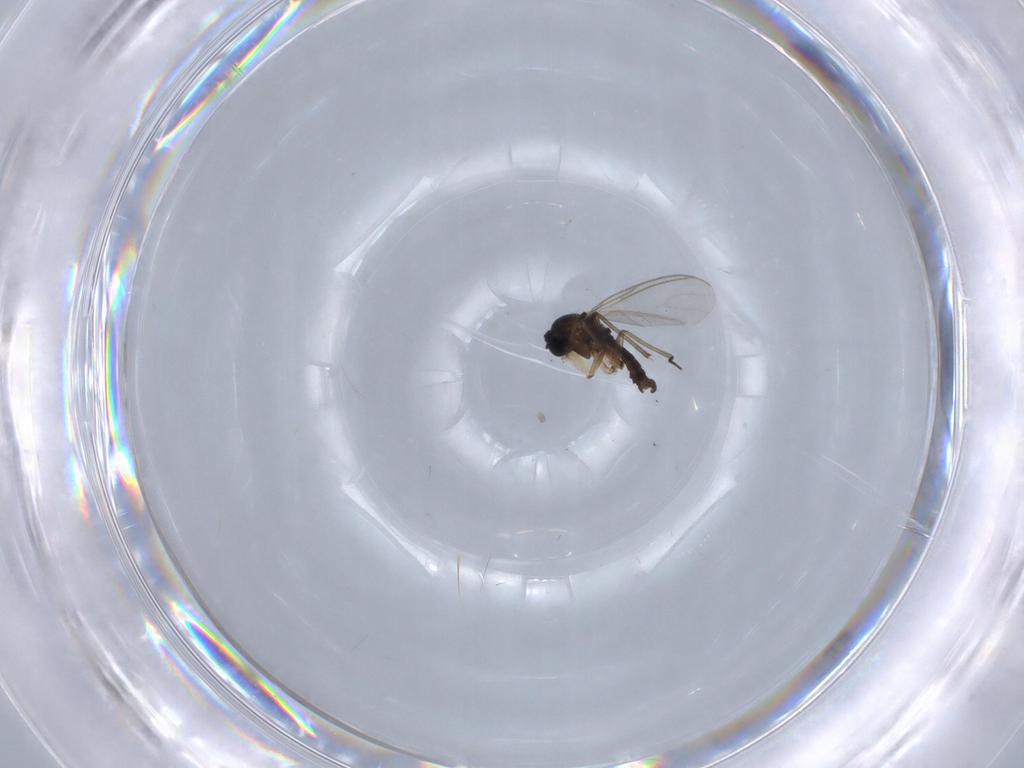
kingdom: Animalia
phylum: Arthropoda
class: Insecta
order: Diptera
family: Sciaridae
